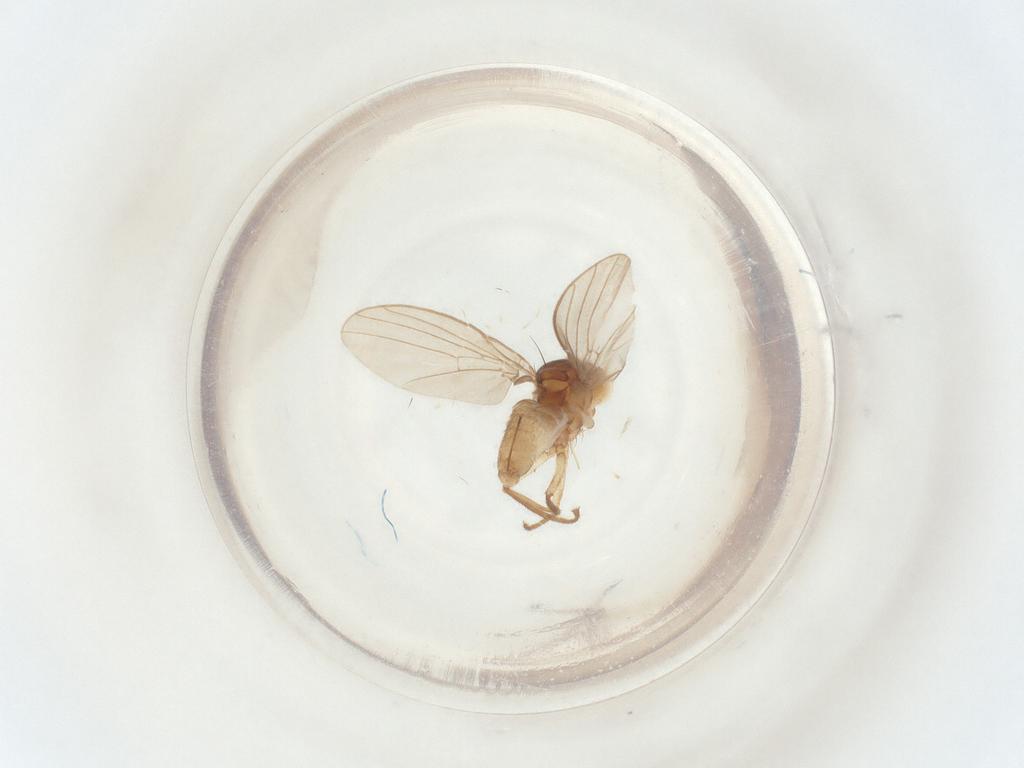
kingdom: Animalia
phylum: Arthropoda
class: Insecta
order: Diptera
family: Agromyzidae
